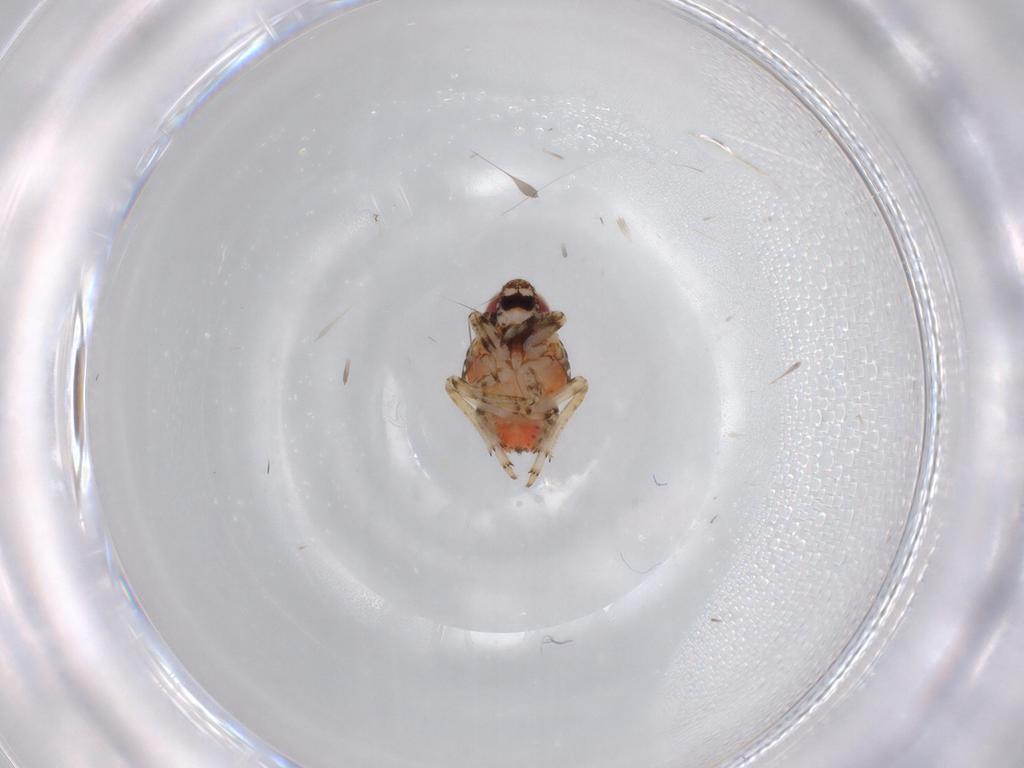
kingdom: Animalia
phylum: Arthropoda
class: Insecta
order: Hemiptera
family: Issidae
